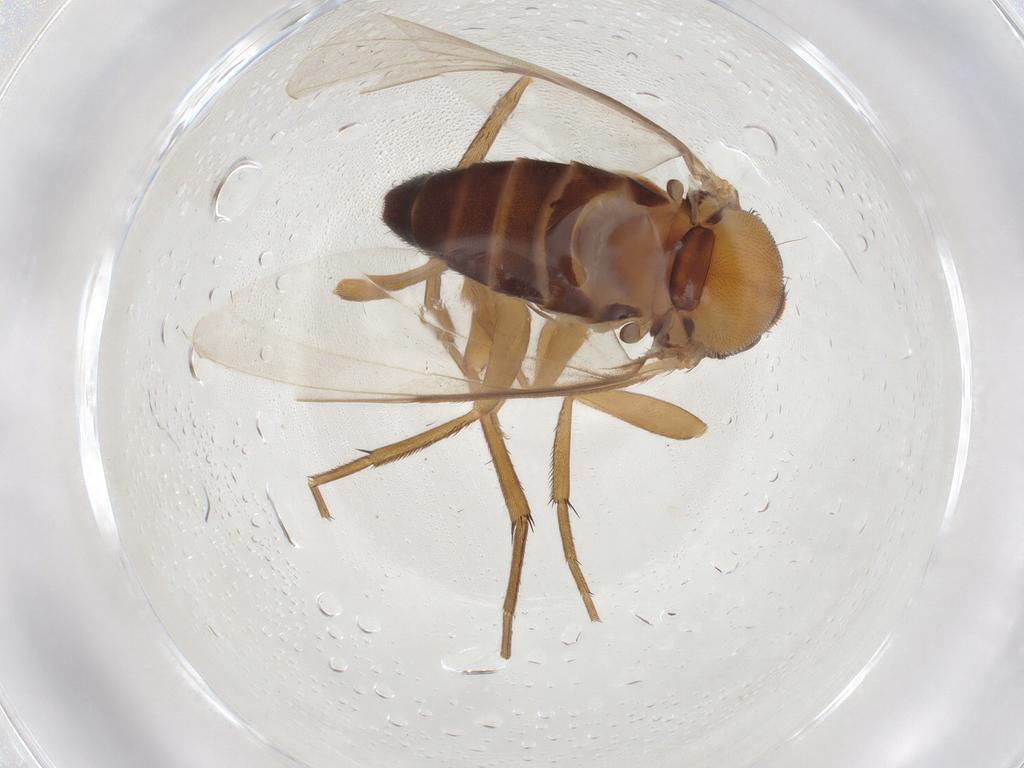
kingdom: Animalia
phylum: Arthropoda
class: Insecta
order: Diptera
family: Phoridae
